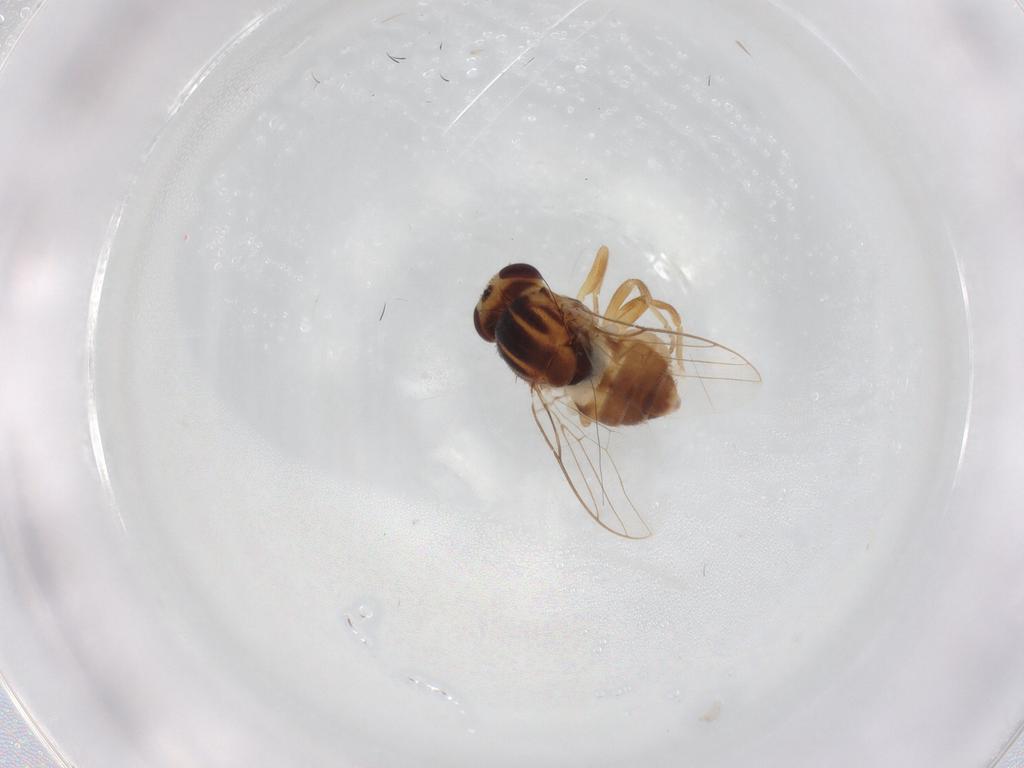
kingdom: Animalia
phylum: Arthropoda
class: Insecta
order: Diptera
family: Chloropidae
